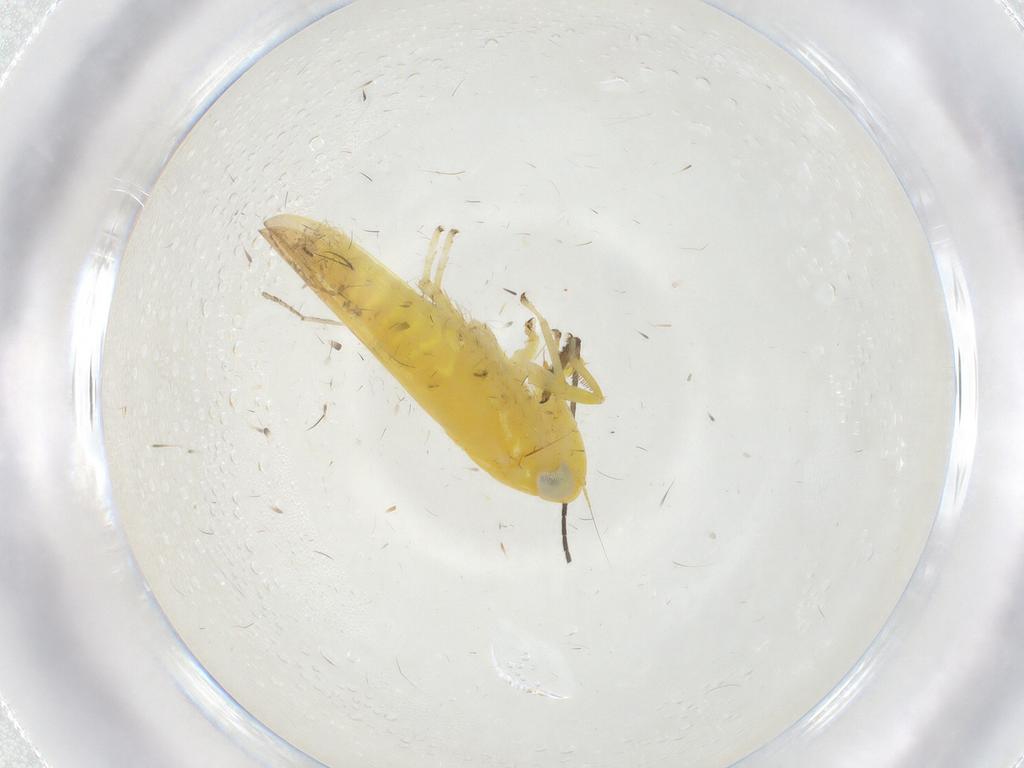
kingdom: Animalia
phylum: Arthropoda
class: Insecta
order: Hemiptera
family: Cicadellidae
